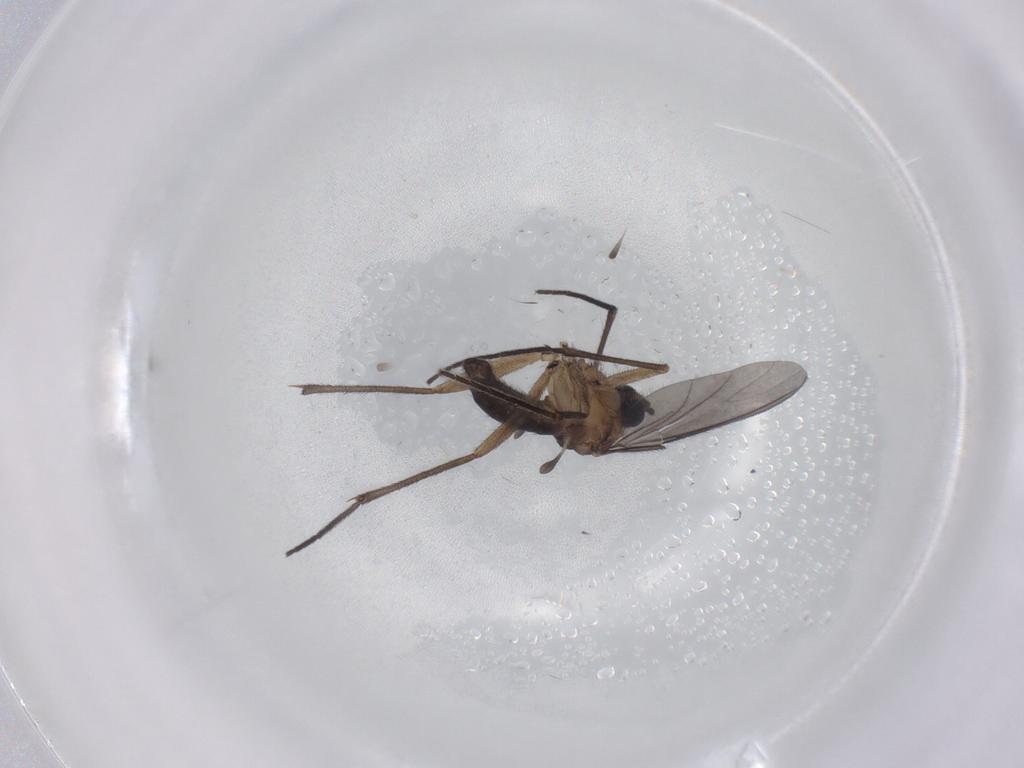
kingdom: Animalia
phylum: Arthropoda
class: Insecta
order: Diptera
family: Sciaridae
